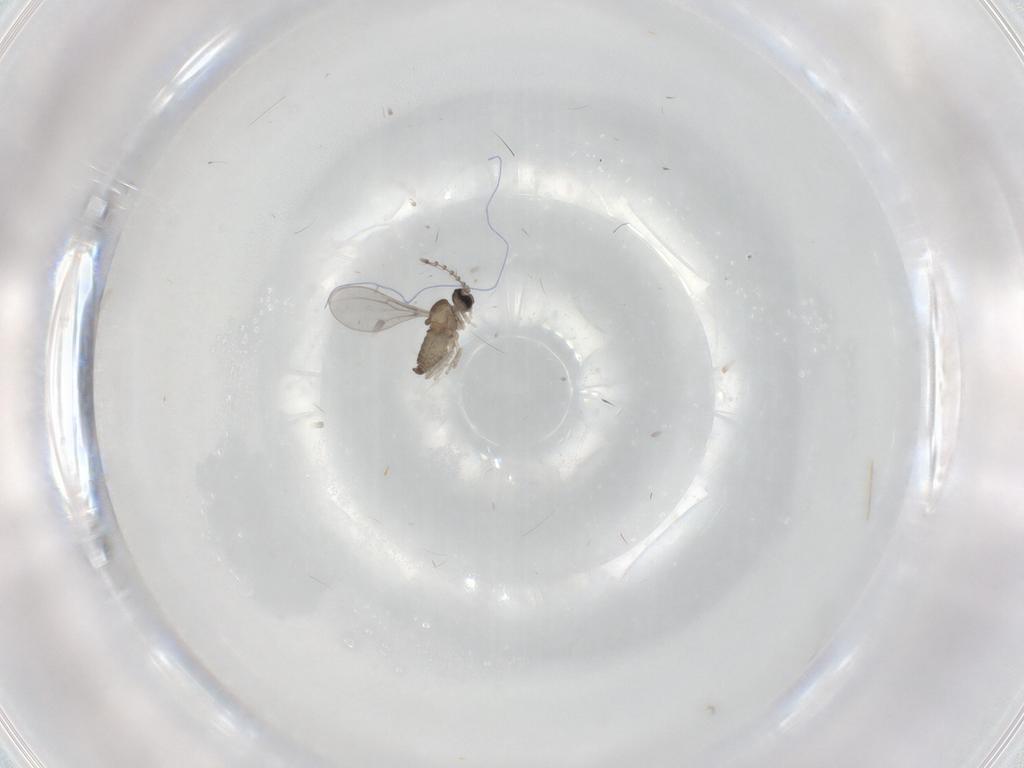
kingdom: Animalia
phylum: Arthropoda
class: Insecta
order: Diptera
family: Cecidomyiidae
